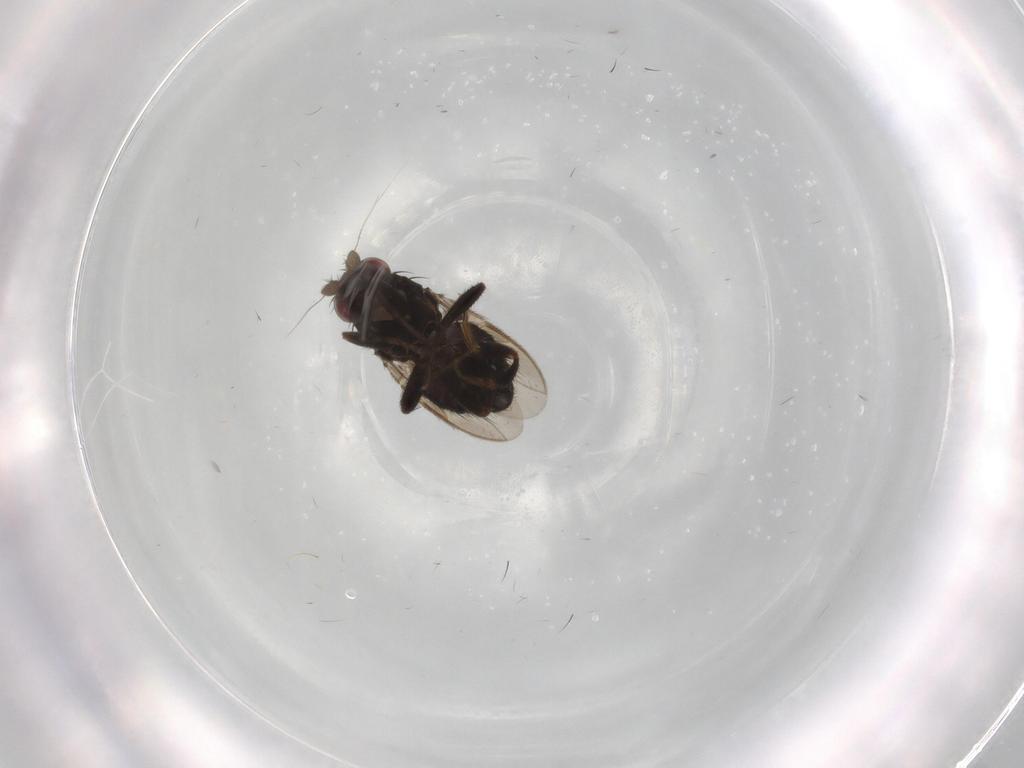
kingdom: Animalia
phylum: Arthropoda
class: Insecta
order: Diptera
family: Sphaeroceridae
